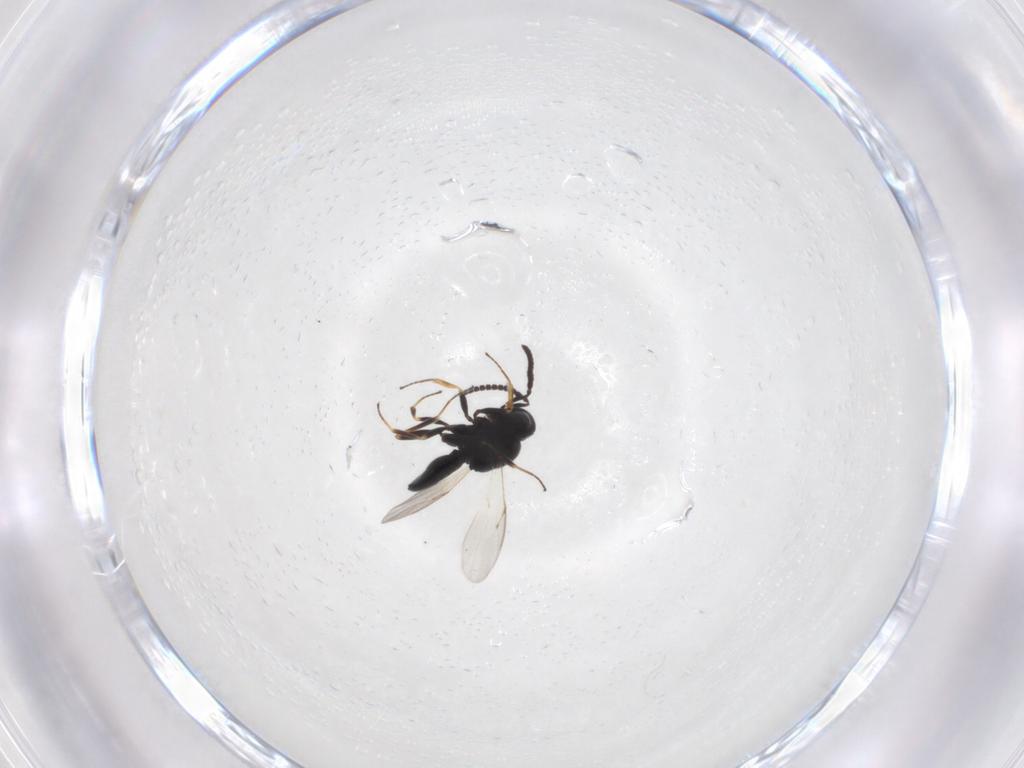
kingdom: Animalia
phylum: Arthropoda
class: Insecta
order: Hymenoptera
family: Scelionidae
